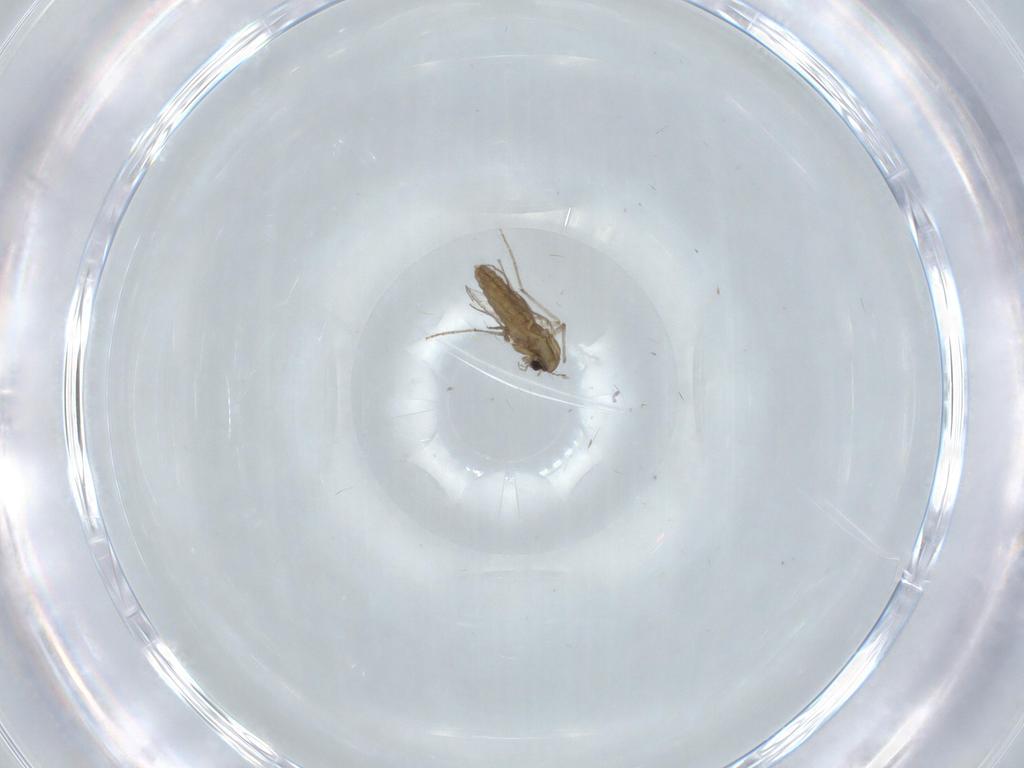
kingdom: Animalia
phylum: Arthropoda
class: Insecta
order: Diptera
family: Chironomidae
